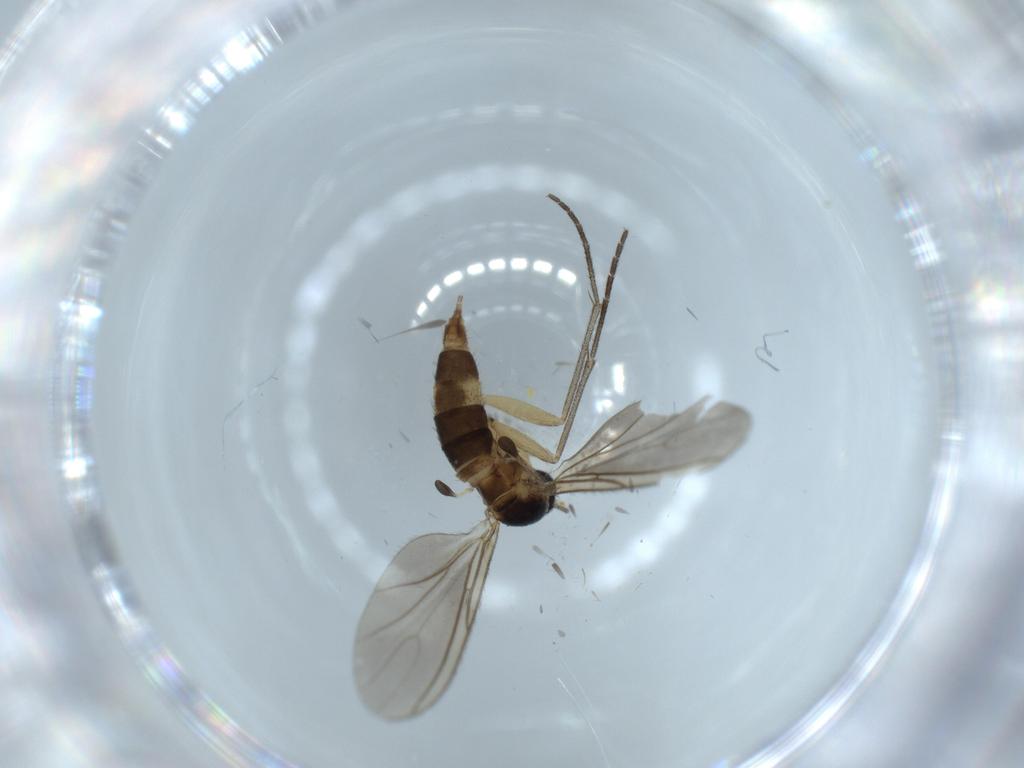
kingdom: Animalia
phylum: Arthropoda
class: Insecta
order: Diptera
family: Sciaridae
